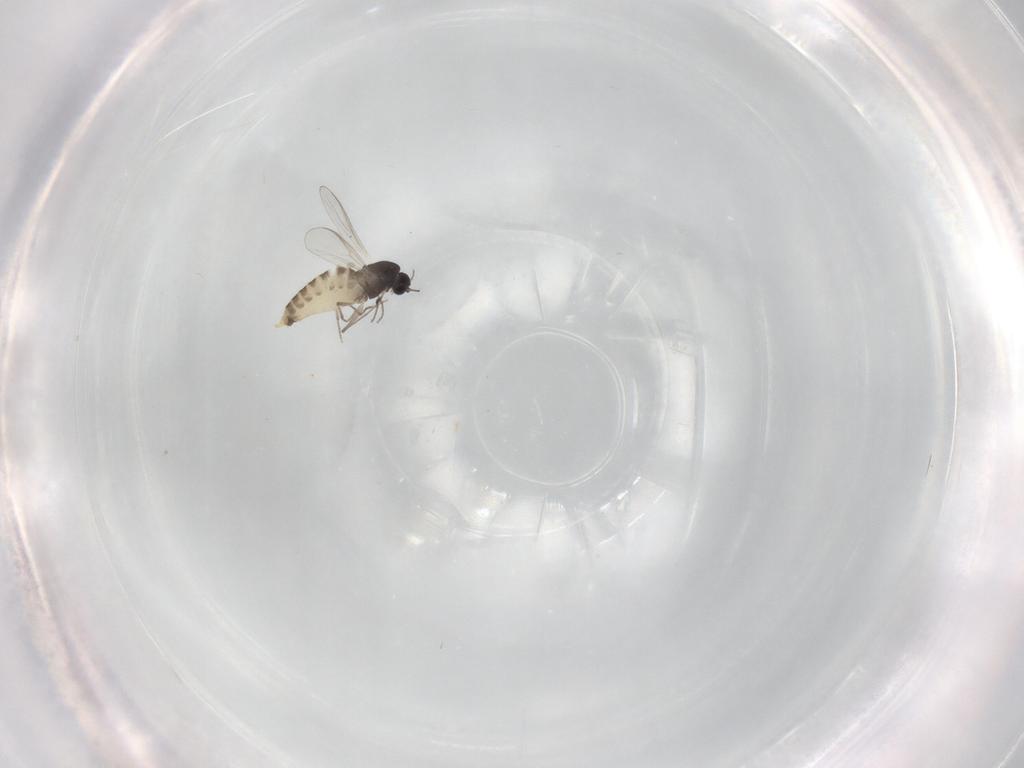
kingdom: Animalia
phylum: Arthropoda
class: Insecta
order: Diptera
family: Chironomidae
